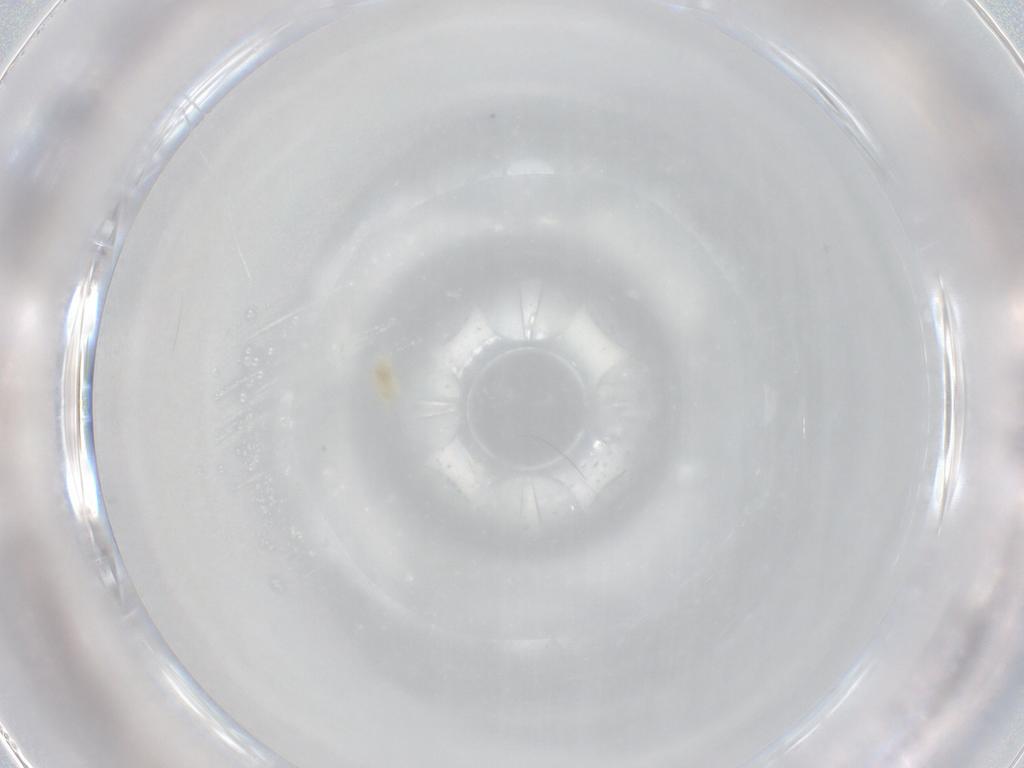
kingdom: Animalia
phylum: Arthropoda
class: Arachnida
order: Trombidiformes
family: Eupodidae
